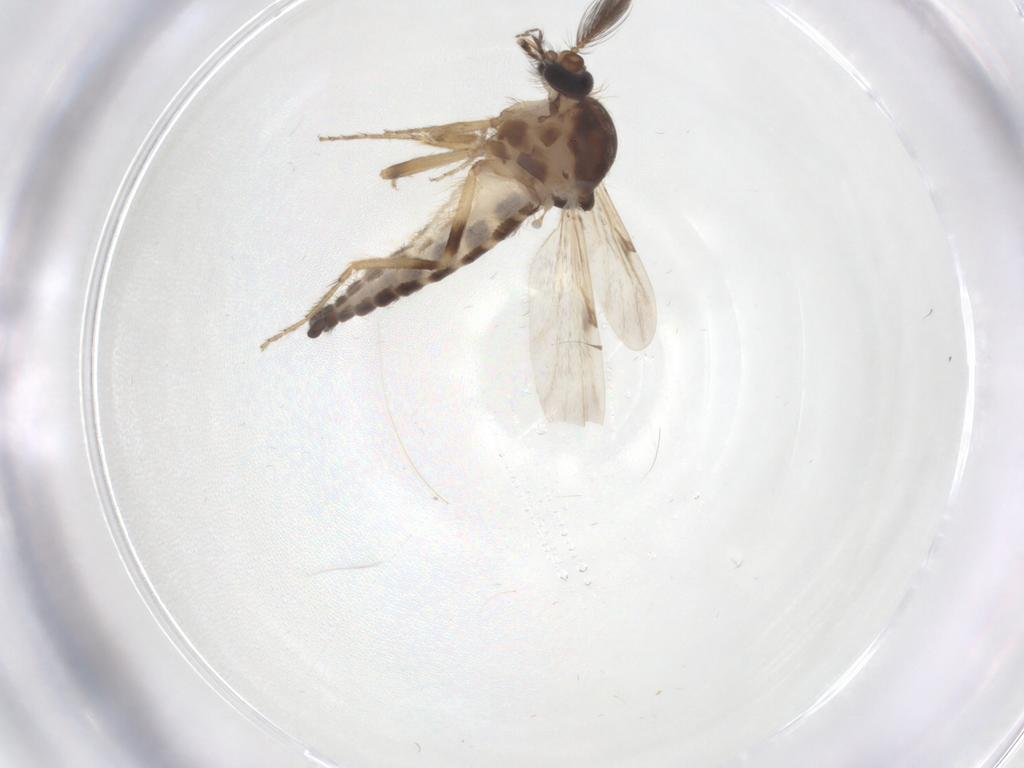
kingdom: Animalia
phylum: Arthropoda
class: Insecta
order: Diptera
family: Ceratopogonidae
